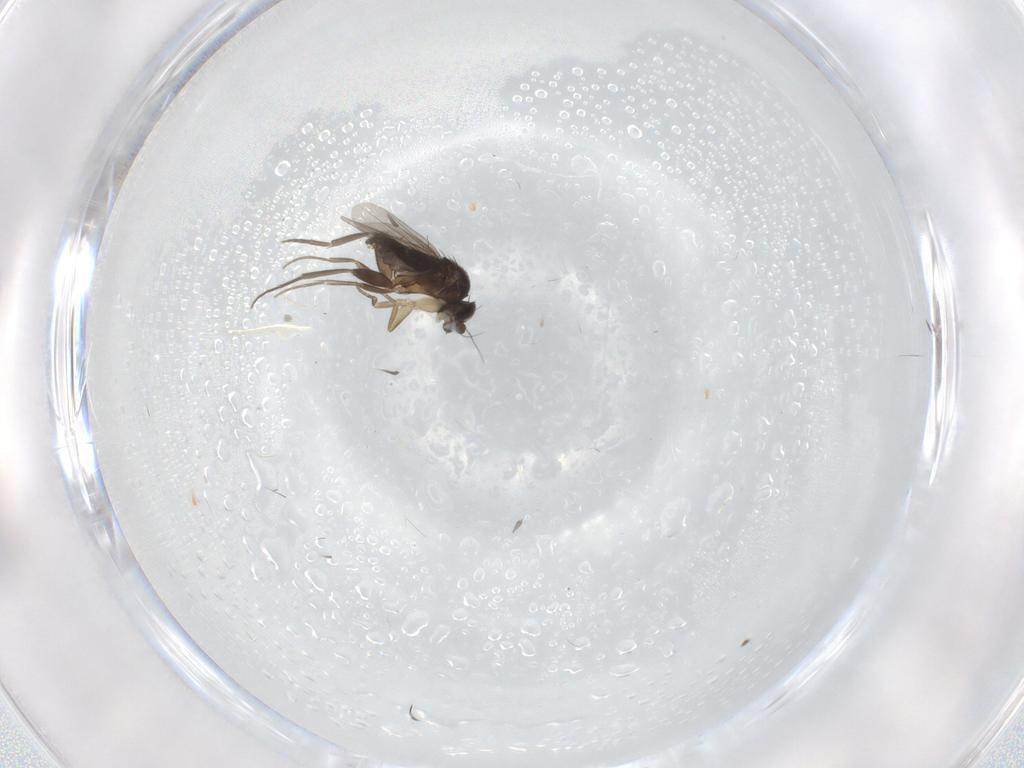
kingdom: Animalia
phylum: Arthropoda
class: Insecta
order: Diptera
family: Phoridae
